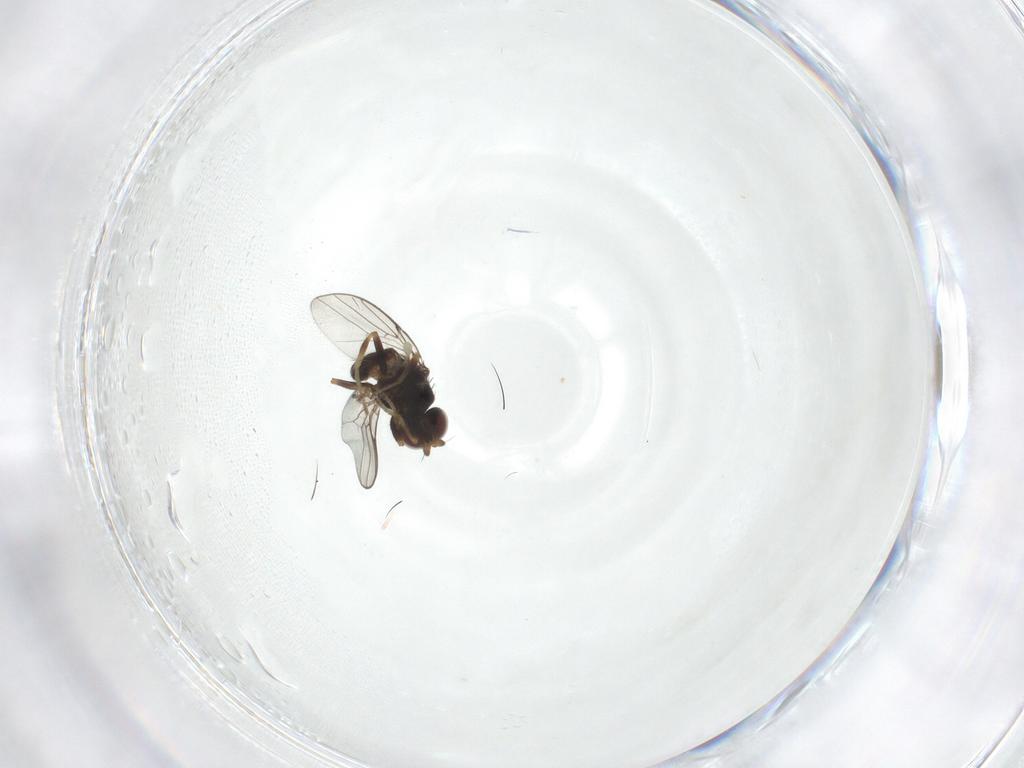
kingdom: Animalia
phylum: Arthropoda
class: Insecta
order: Diptera
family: Chloropidae
